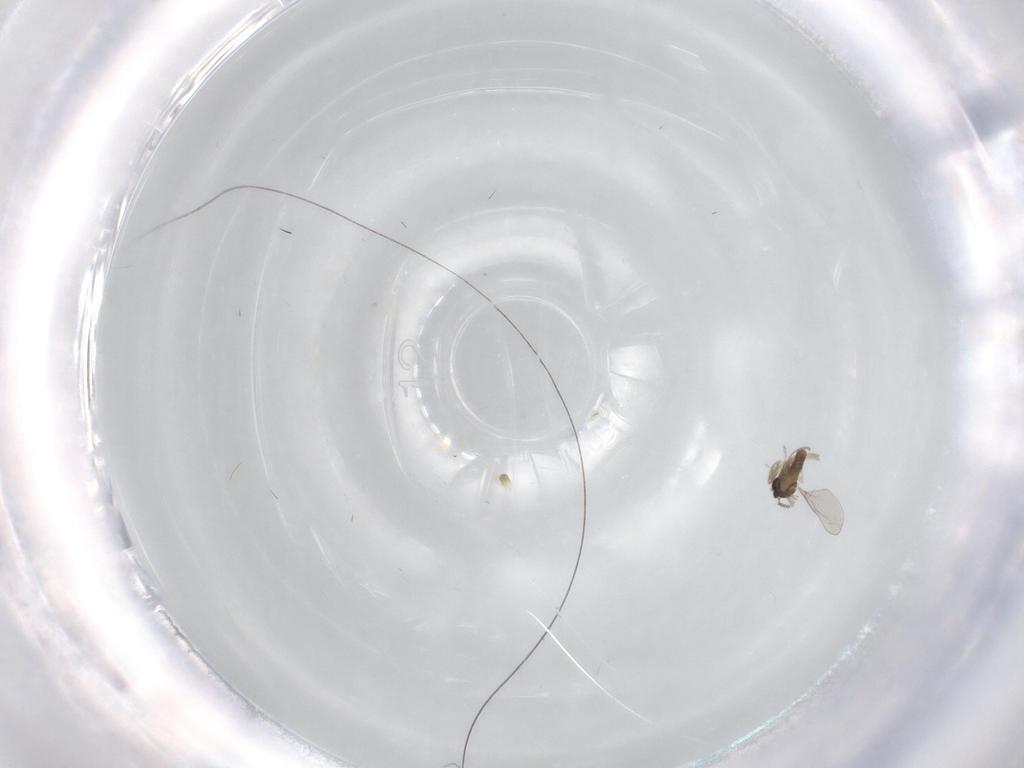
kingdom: Animalia
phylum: Arthropoda
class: Insecta
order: Diptera
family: Cecidomyiidae
